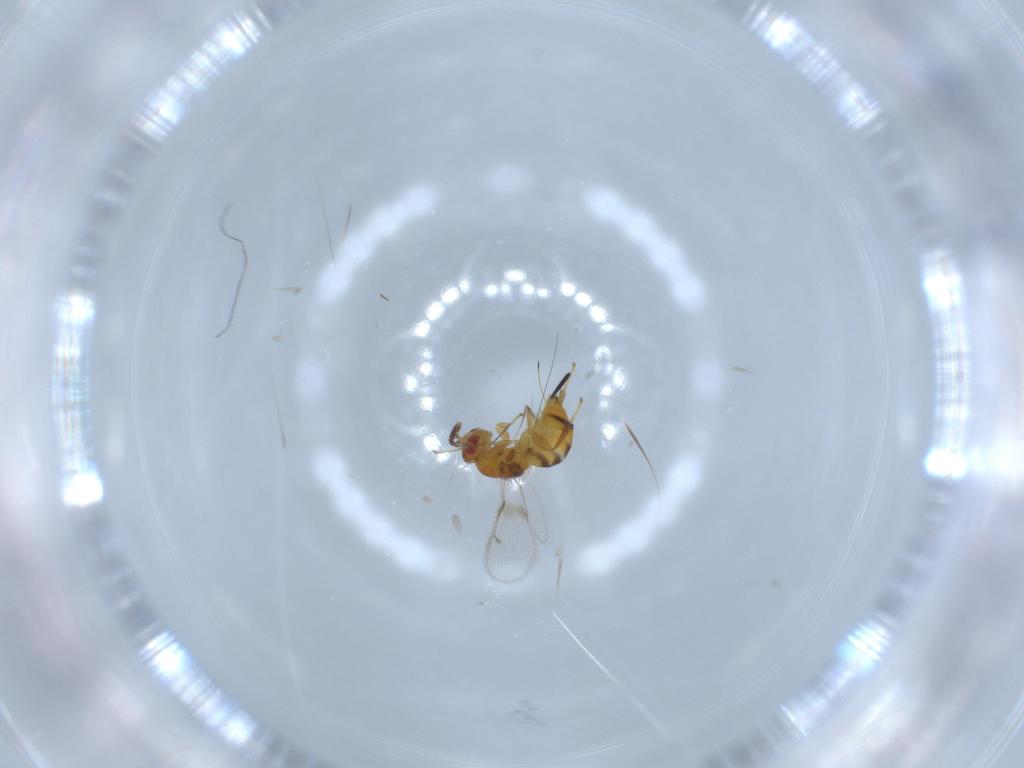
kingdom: Animalia
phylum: Arthropoda
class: Insecta
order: Hymenoptera
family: Torymidae
